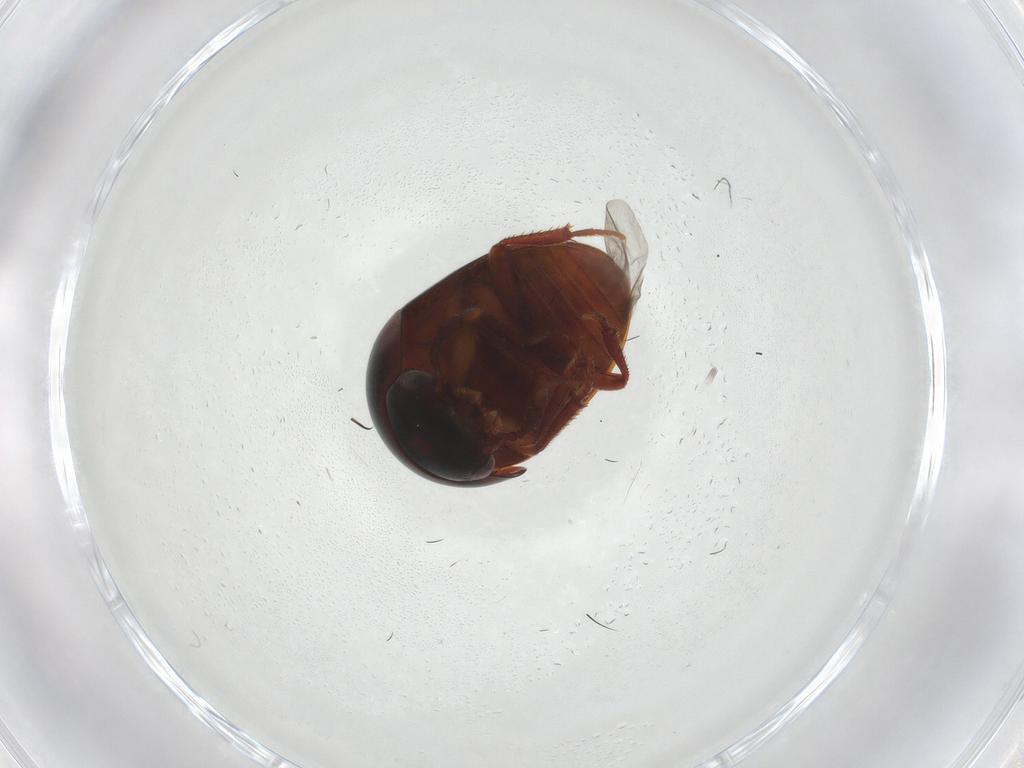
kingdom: Animalia
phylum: Arthropoda
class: Insecta
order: Coleoptera
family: Leiodidae
